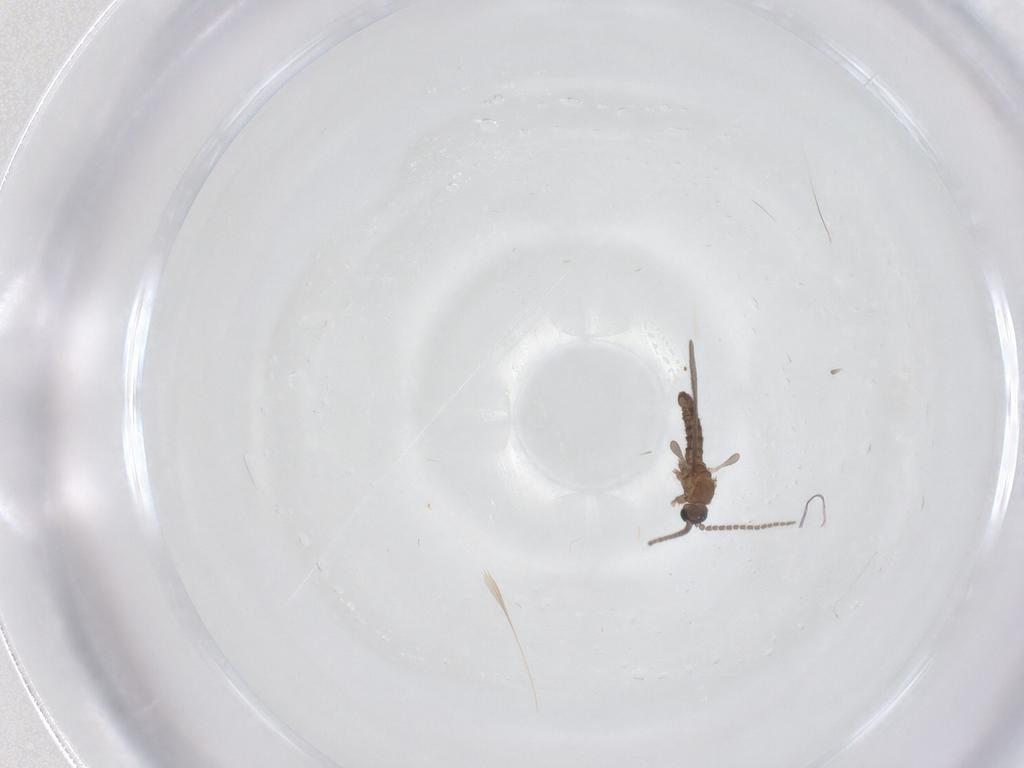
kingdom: Animalia
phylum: Arthropoda
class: Insecta
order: Diptera
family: Sciaridae
